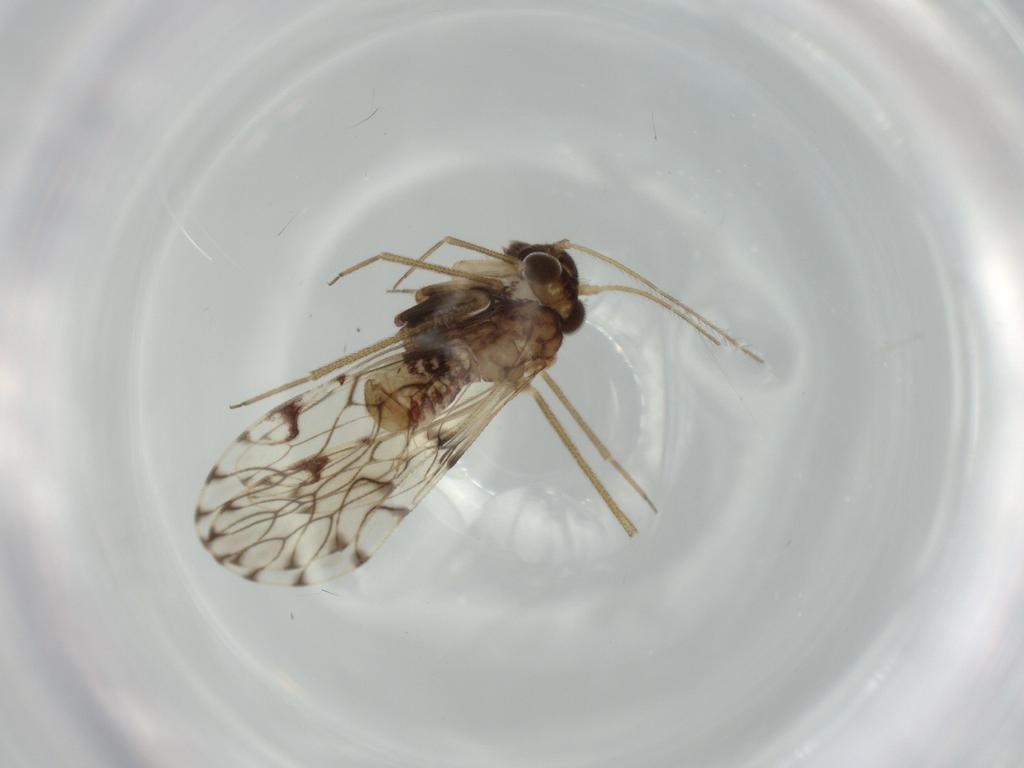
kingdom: Animalia
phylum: Arthropoda
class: Insecta
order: Psocodea
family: Epipsocidae
